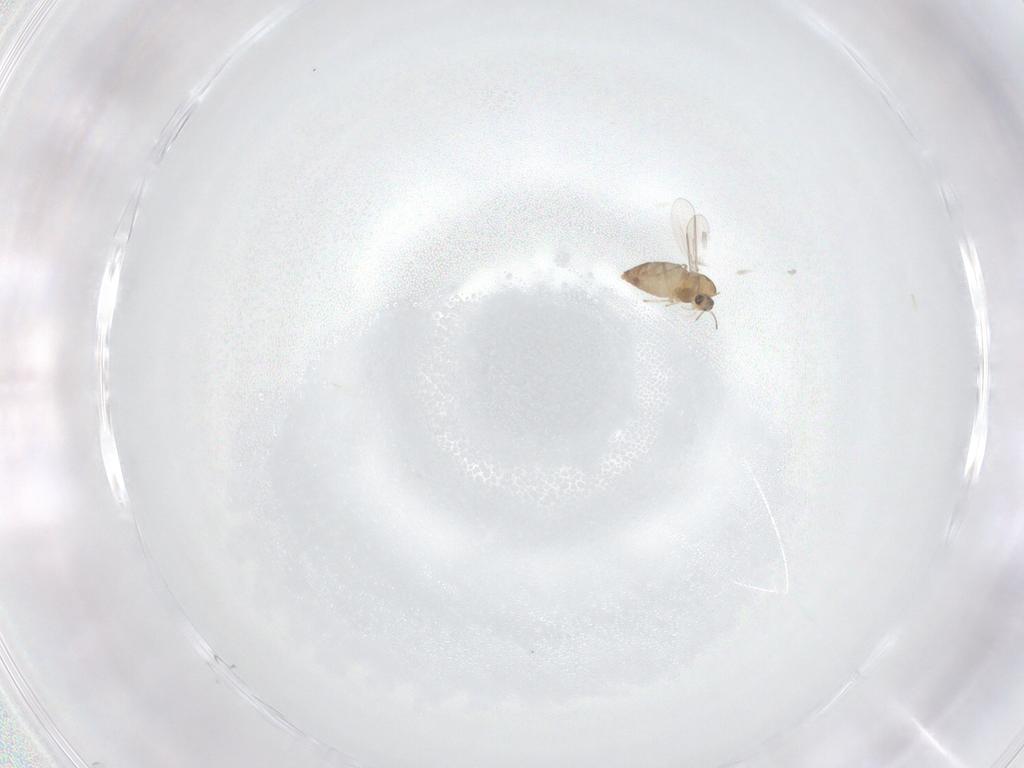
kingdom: Animalia
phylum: Arthropoda
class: Insecta
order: Diptera
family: Chironomidae
